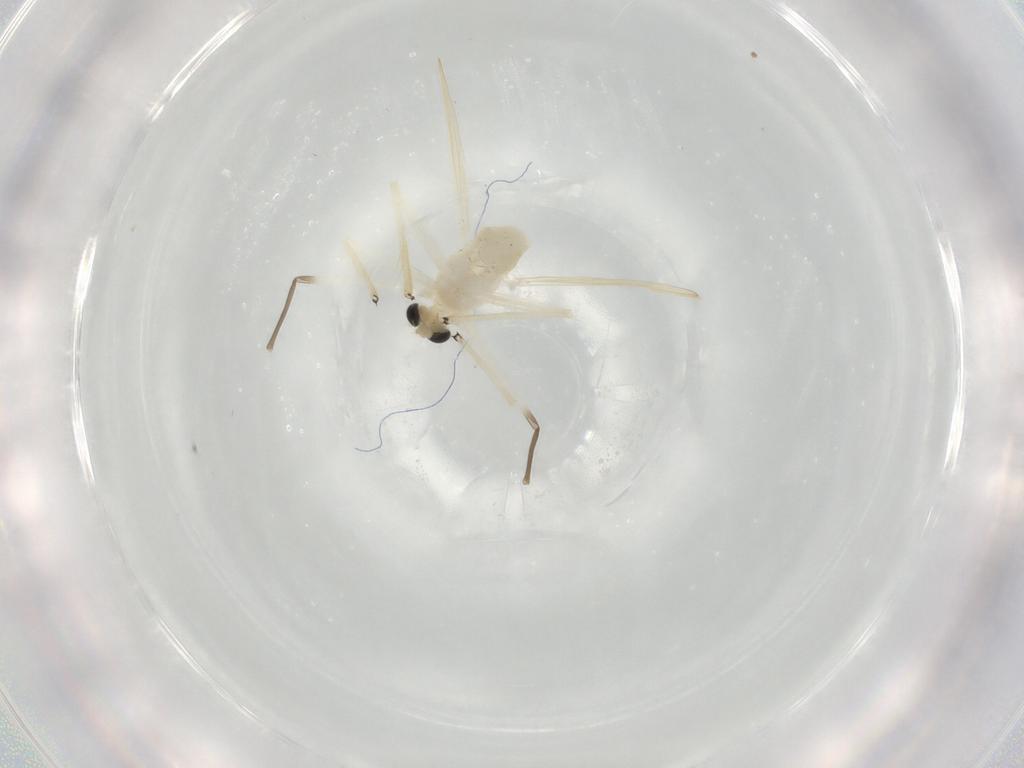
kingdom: Animalia
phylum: Arthropoda
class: Insecta
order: Diptera
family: Chironomidae
